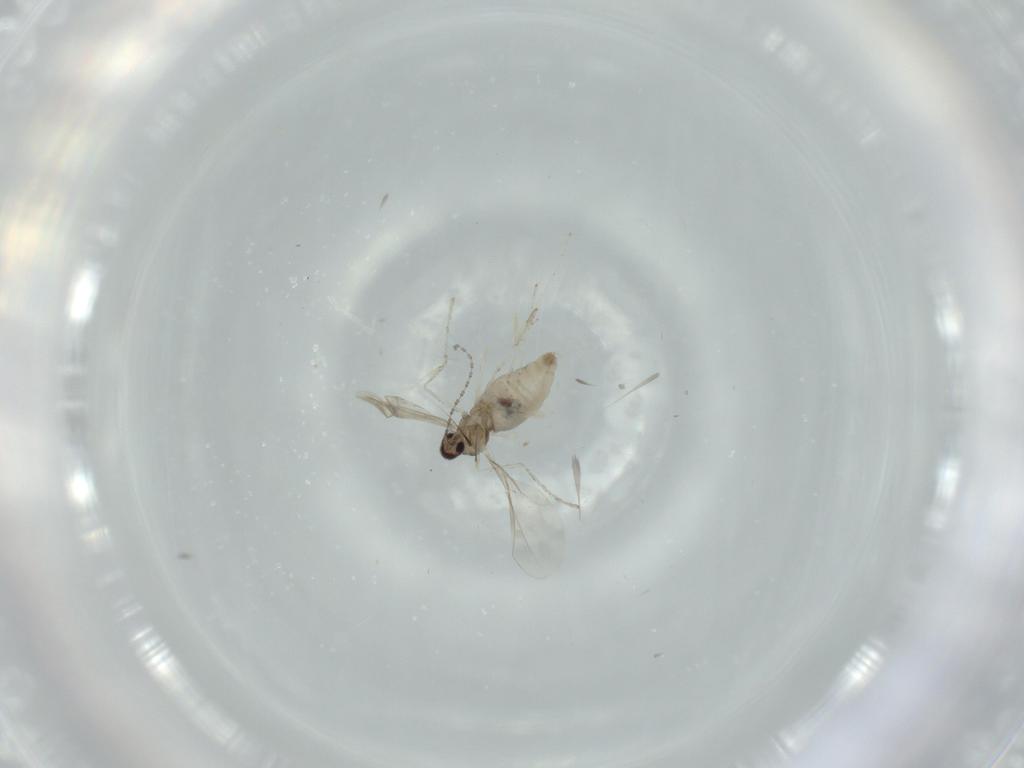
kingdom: Animalia
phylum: Arthropoda
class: Insecta
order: Diptera
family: Cecidomyiidae
